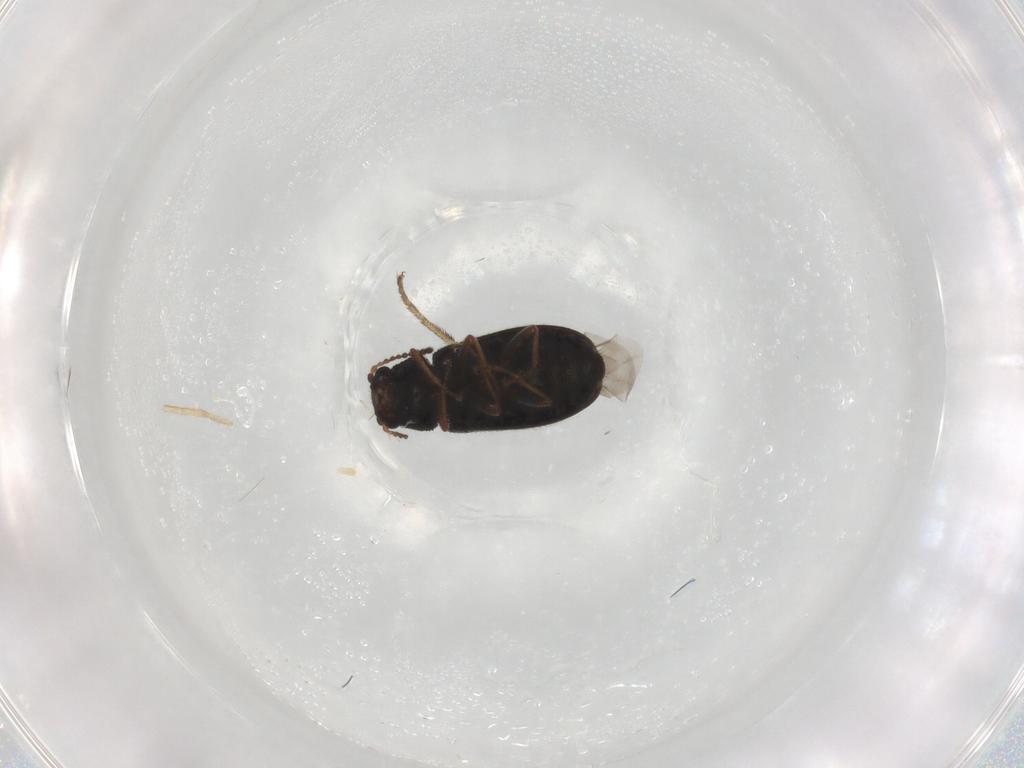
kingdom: Animalia
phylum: Arthropoda
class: Insecta
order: Coleoptera
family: Melyridae
